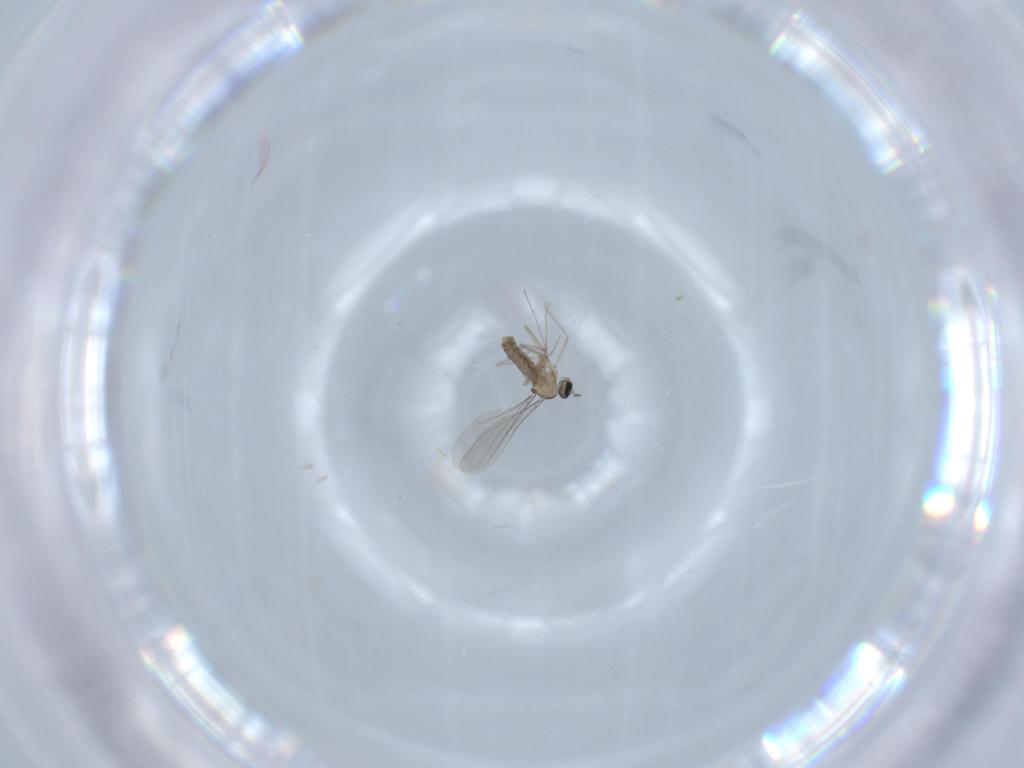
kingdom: Animalia
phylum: Arthropoda
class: Insecta
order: Diptera
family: Cecidomyiidae
